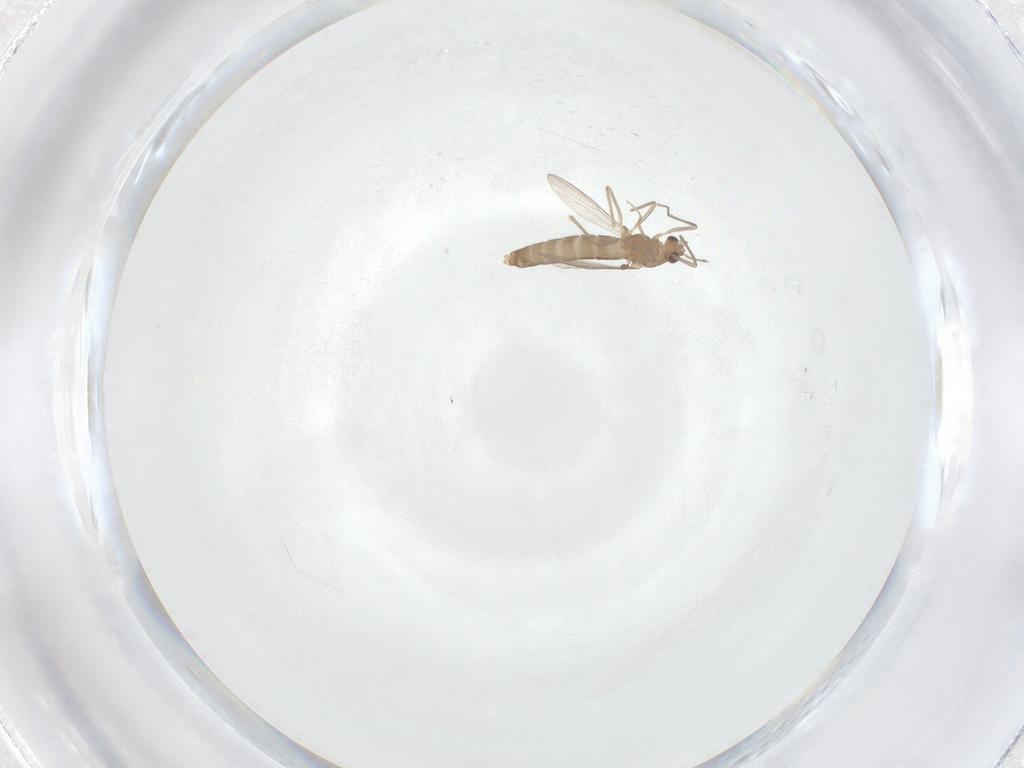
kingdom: Animalia
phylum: Arthropoda
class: Insecta
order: Diptera
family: Chironomidae
